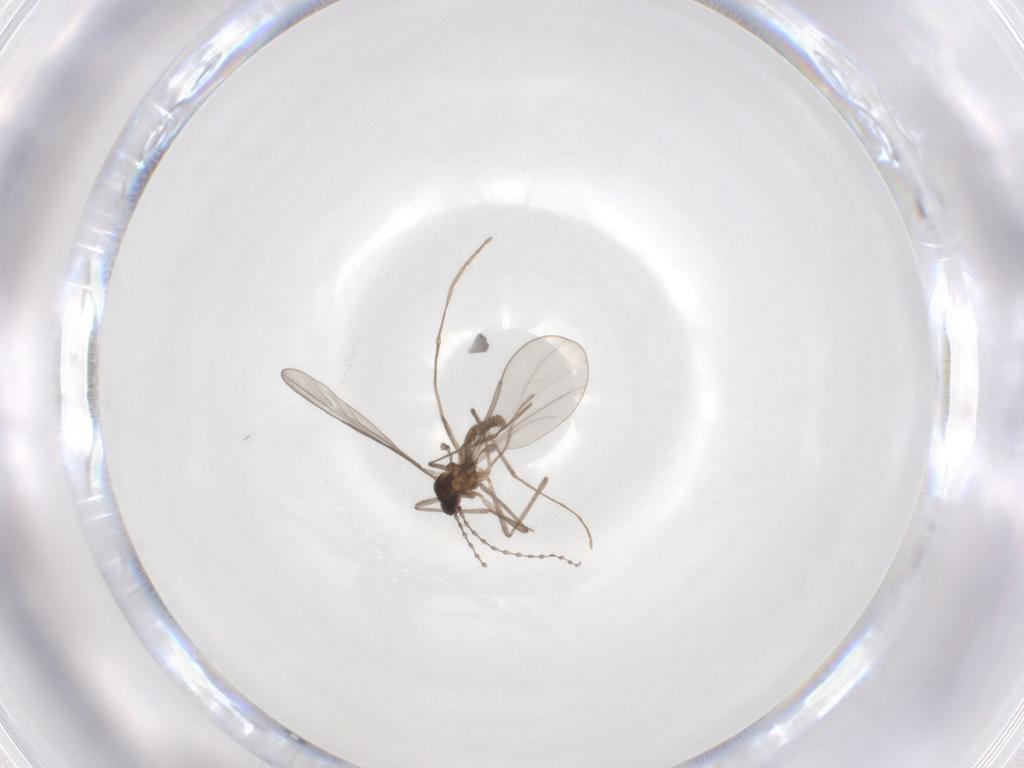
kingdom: Animalia
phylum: Arthropoda
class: Insecta
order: Diptera
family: Cecidomyiidae
